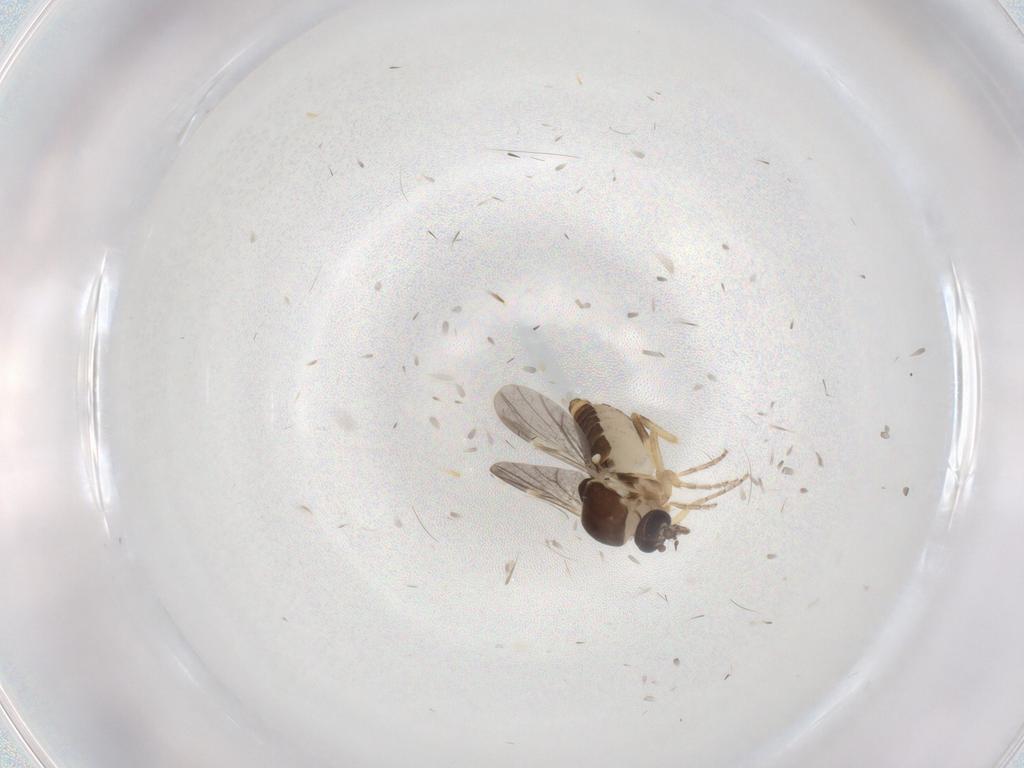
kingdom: Animalia
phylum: Arthropoda
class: Insecta
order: Diptera
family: Ceratopogonidae
